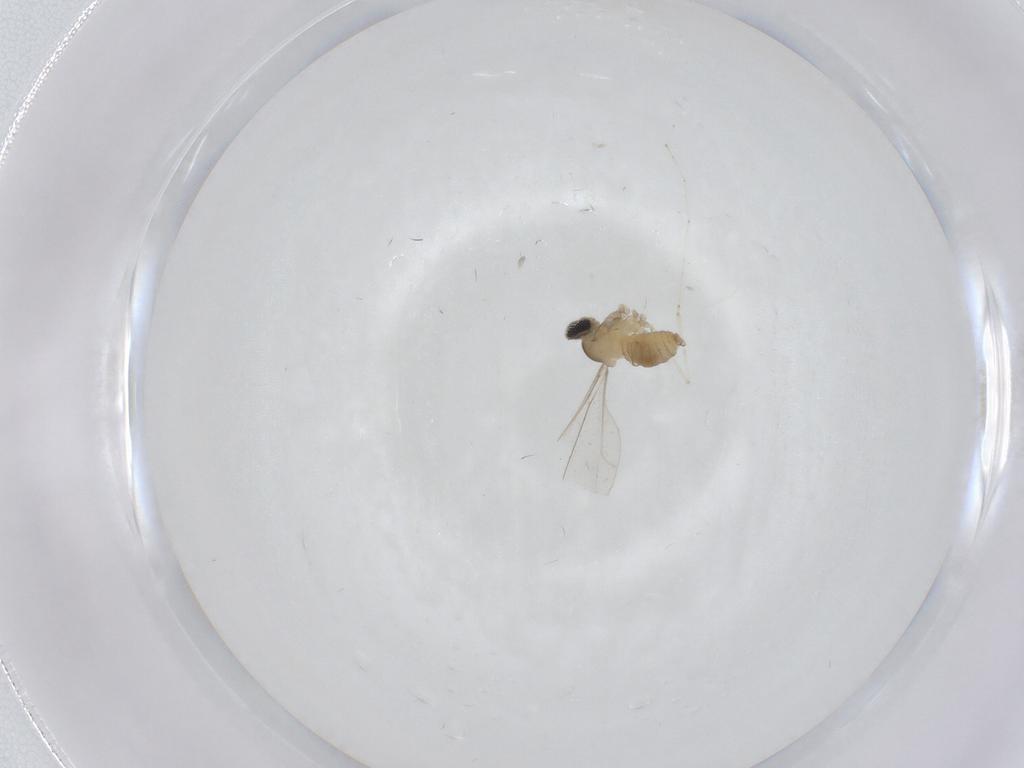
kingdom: Animalia
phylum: Arthropoda
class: Insecta
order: Diptera
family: Cecidomyiidae
